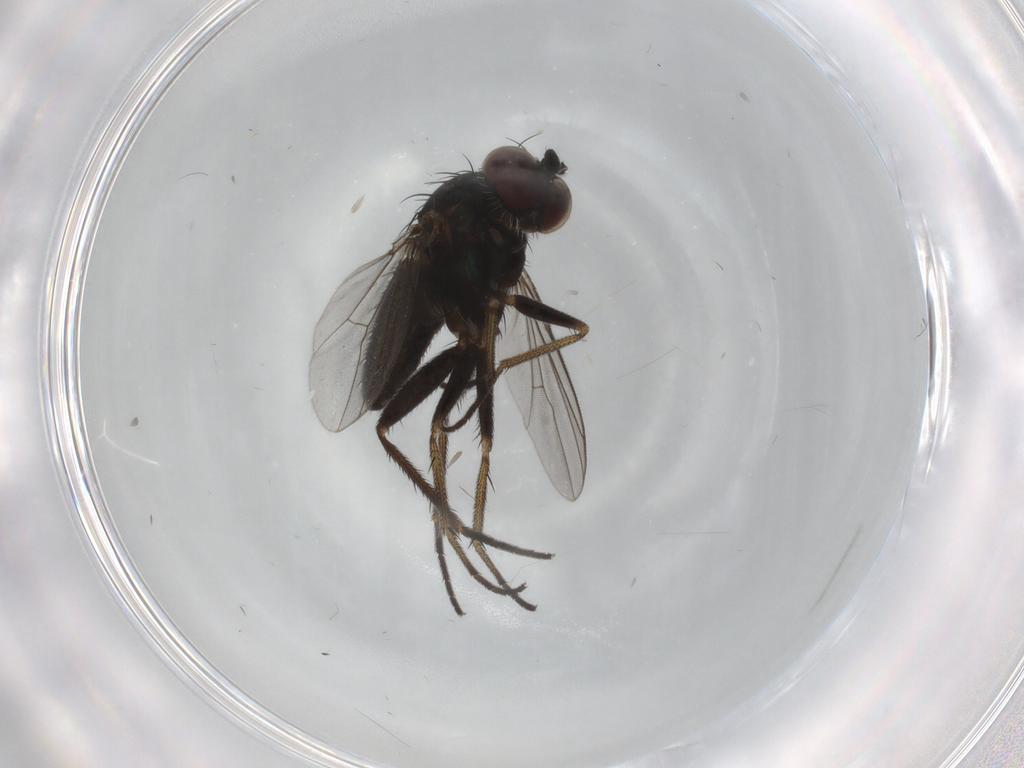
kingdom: Animalia
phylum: Arthropoda
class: Insecta
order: Diptera
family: Dolichopodidae
